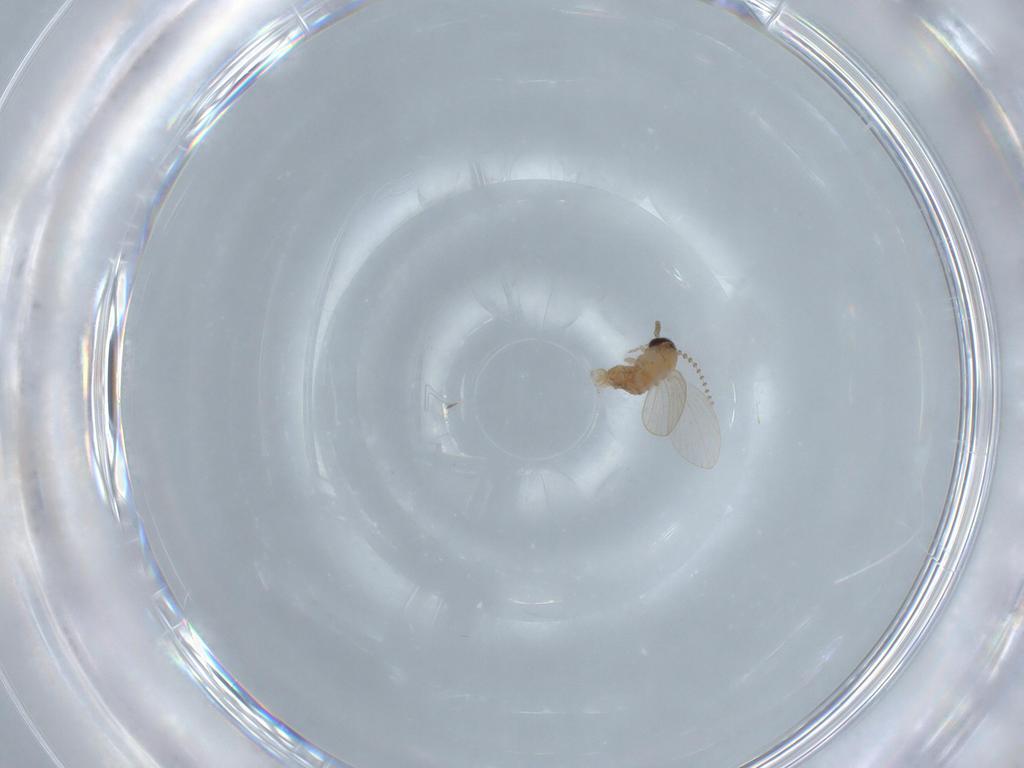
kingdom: Animalia
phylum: Arthropoda
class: Insecta
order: Diptera
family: Psychodidae
